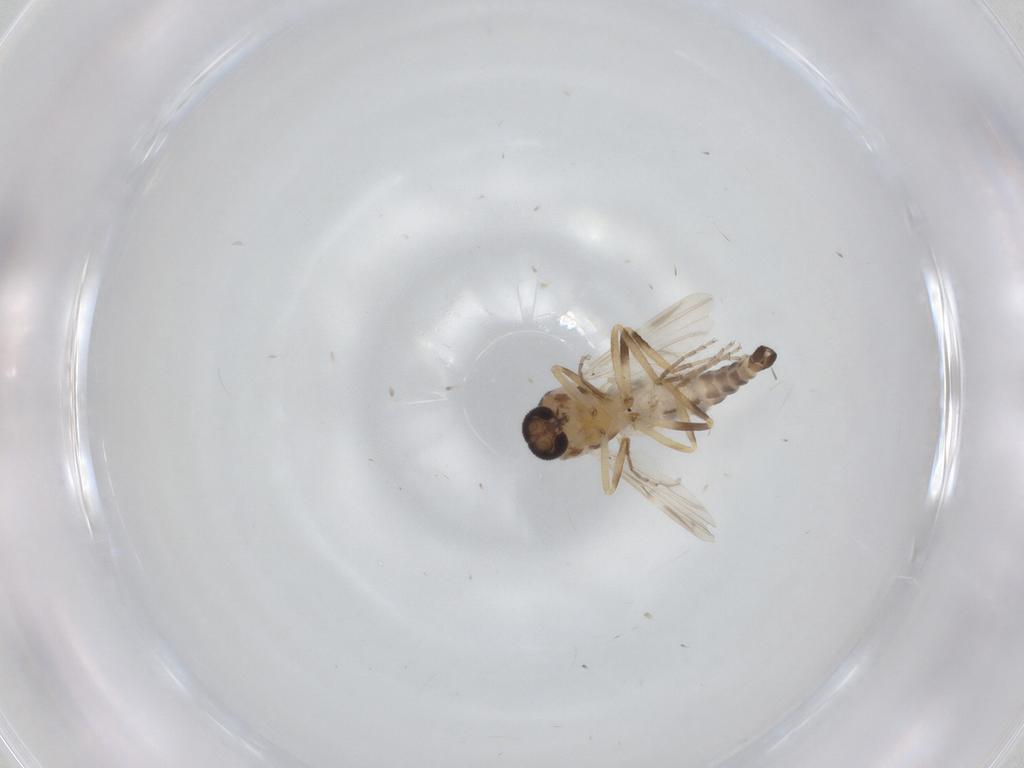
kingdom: Animalia
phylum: Arthropoda
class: Insecta
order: Diptera
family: Ceratopogonidae
